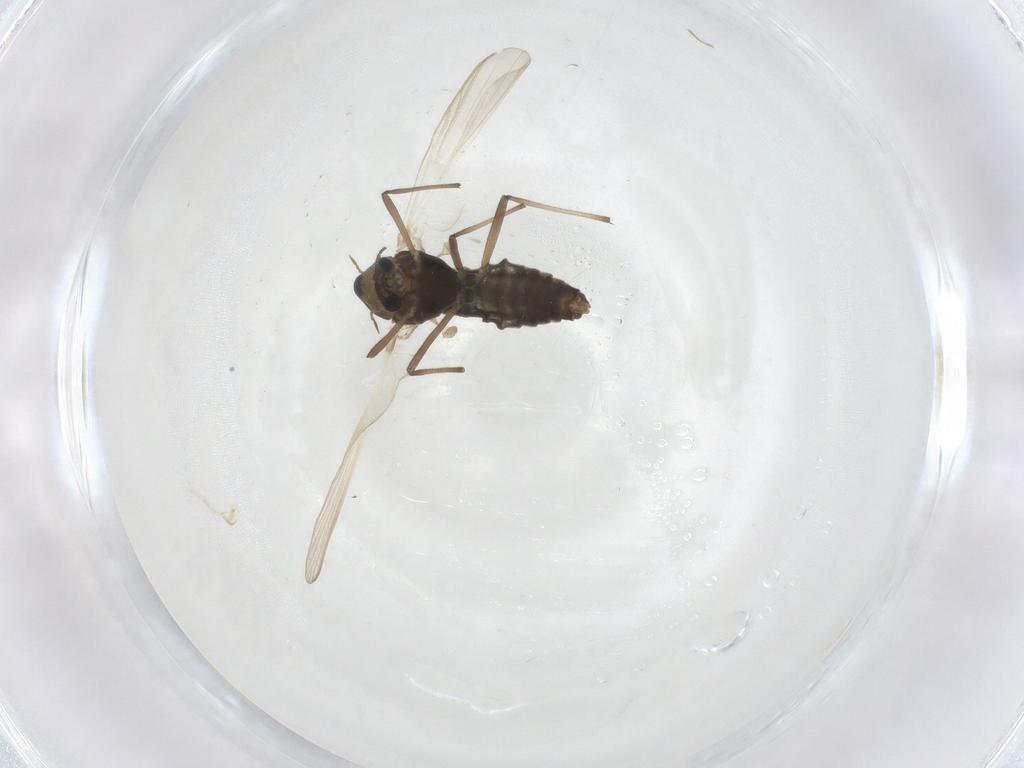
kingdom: Animalia
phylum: Arthropoda
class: Insecta
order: Diptera
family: Chironomidae
